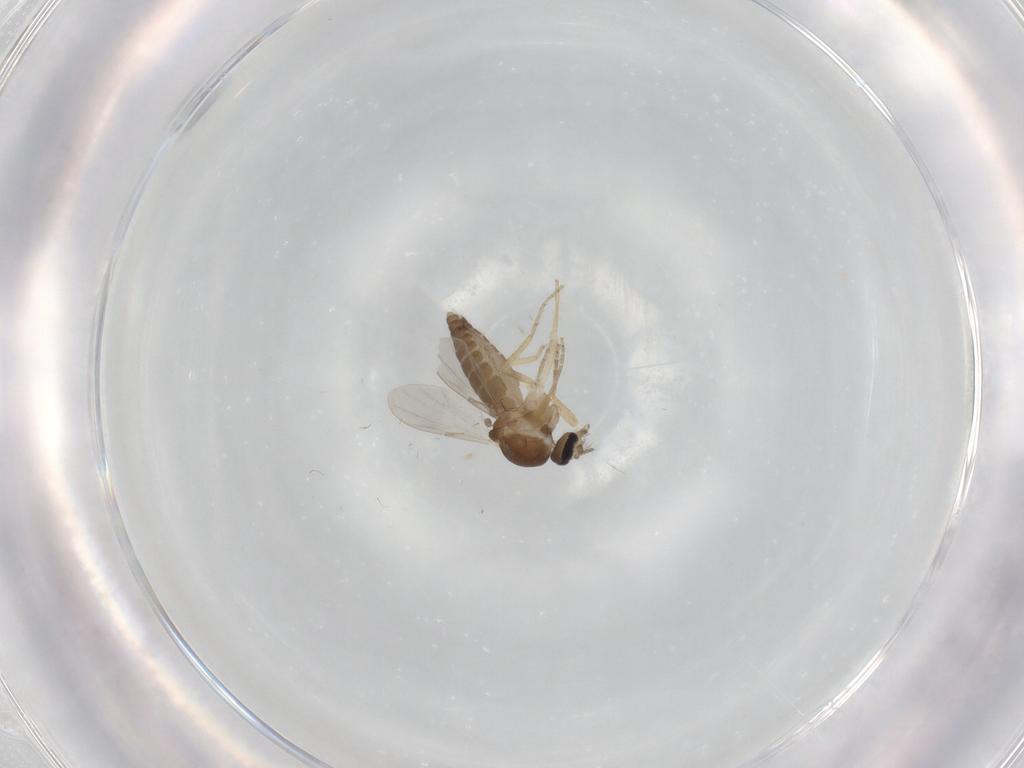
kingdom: Animalia
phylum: Arthropoda
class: Insecta
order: Diptera
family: Ceratopogonidae
